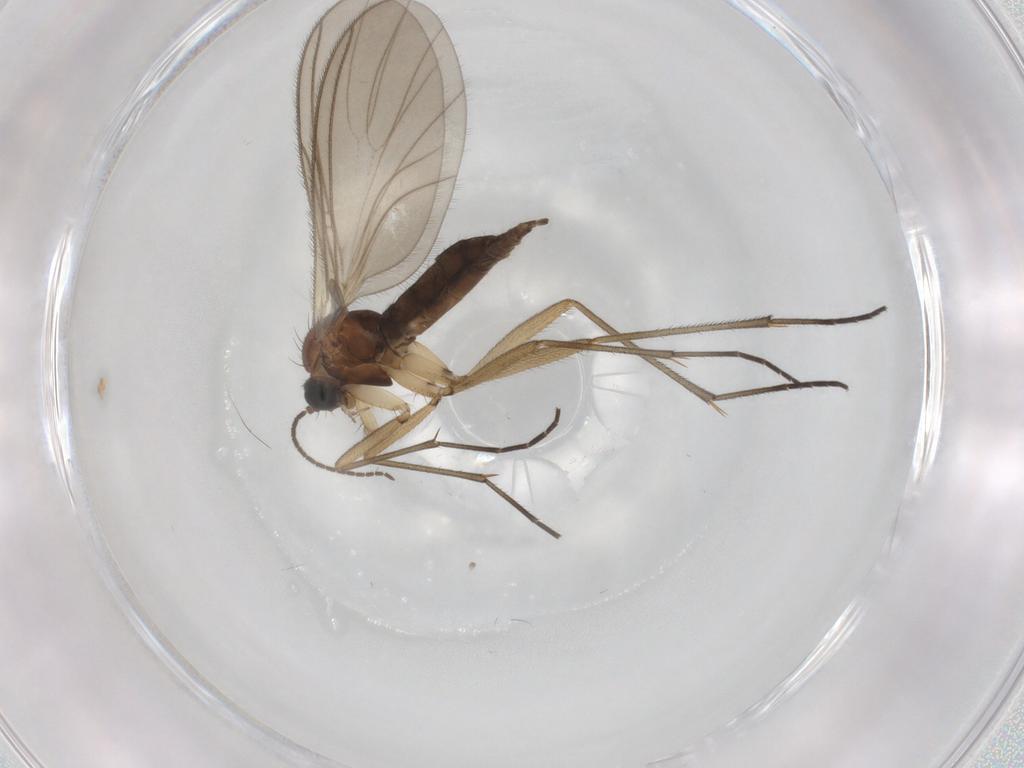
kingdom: Animalia
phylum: Arthropoda
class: Insecta
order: Diptera
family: Sciaridae
